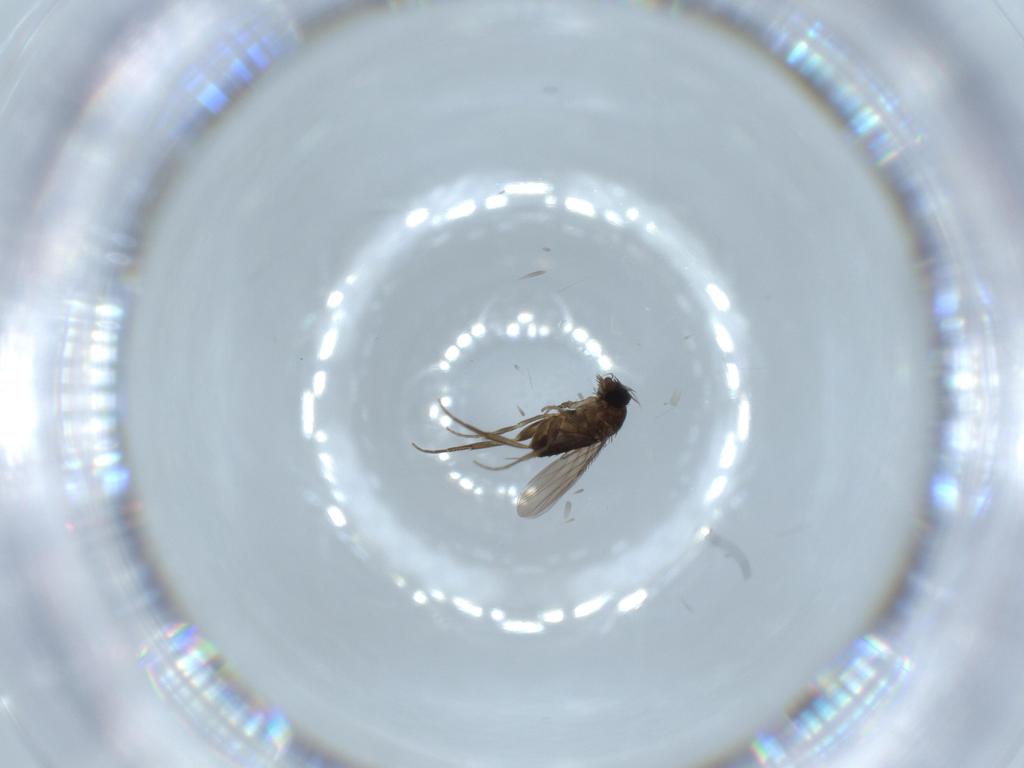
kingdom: Animalia
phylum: Arthropoda
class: Insecta
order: Diptera
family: Phoridae
